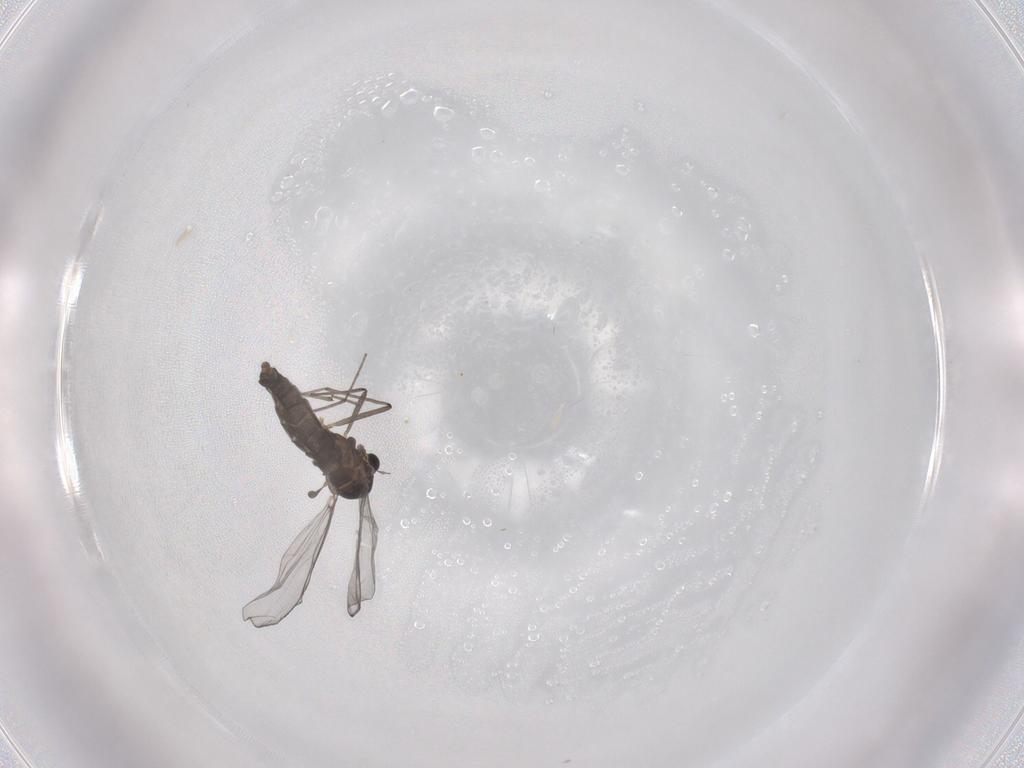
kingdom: Animalia
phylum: Arthropoda
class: Insecta
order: Diptera
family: Chironomidae
